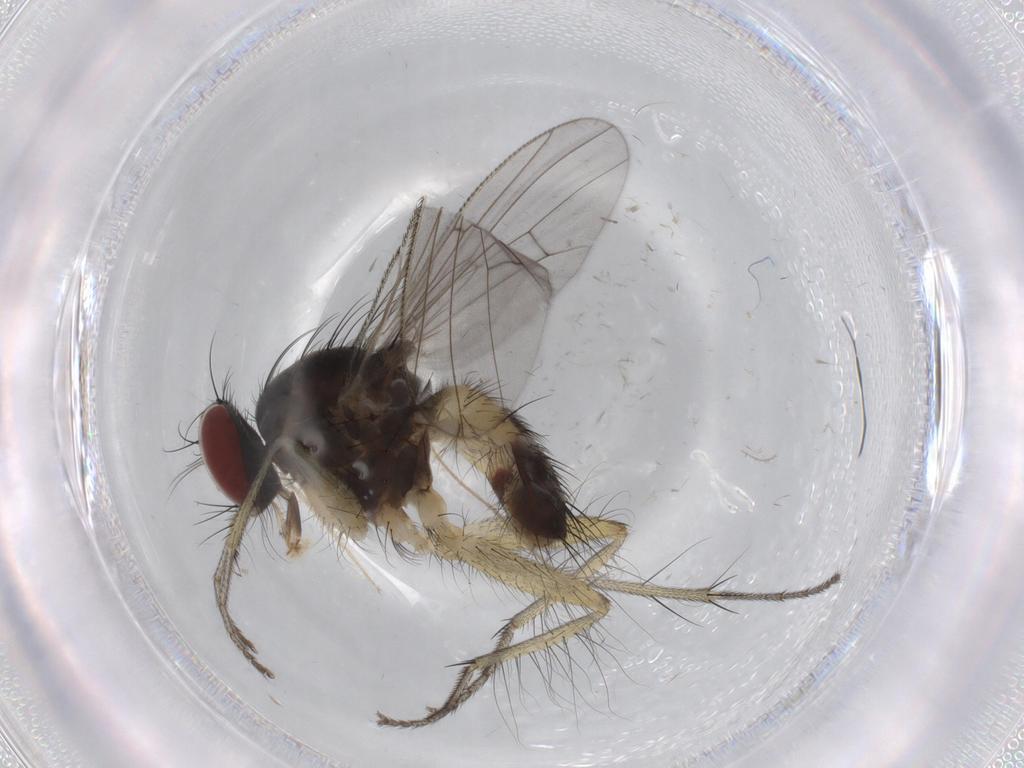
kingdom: Animalia
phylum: Arthropoda
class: Insecta
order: Diptera
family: Muscidae
